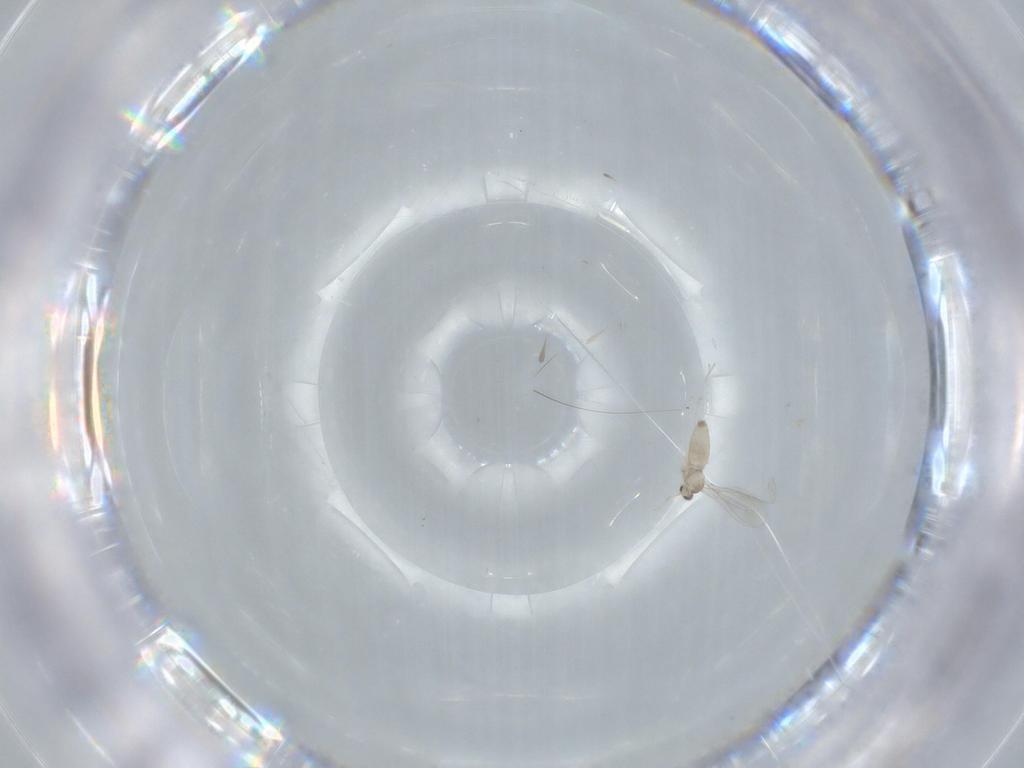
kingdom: Animalia
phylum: Arthropoda
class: Insecta
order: Diptera
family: Cecidomyiidae
